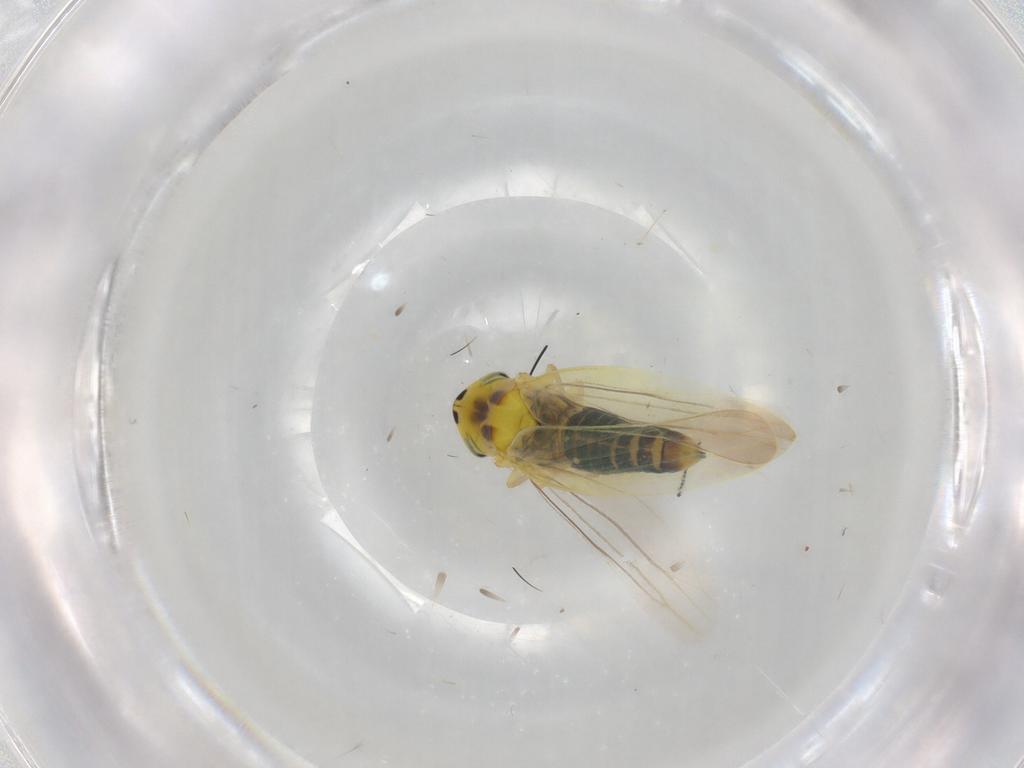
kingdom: Animalia
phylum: Arthropoda
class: Insecta
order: Hemiptera
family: Cicadellidae
